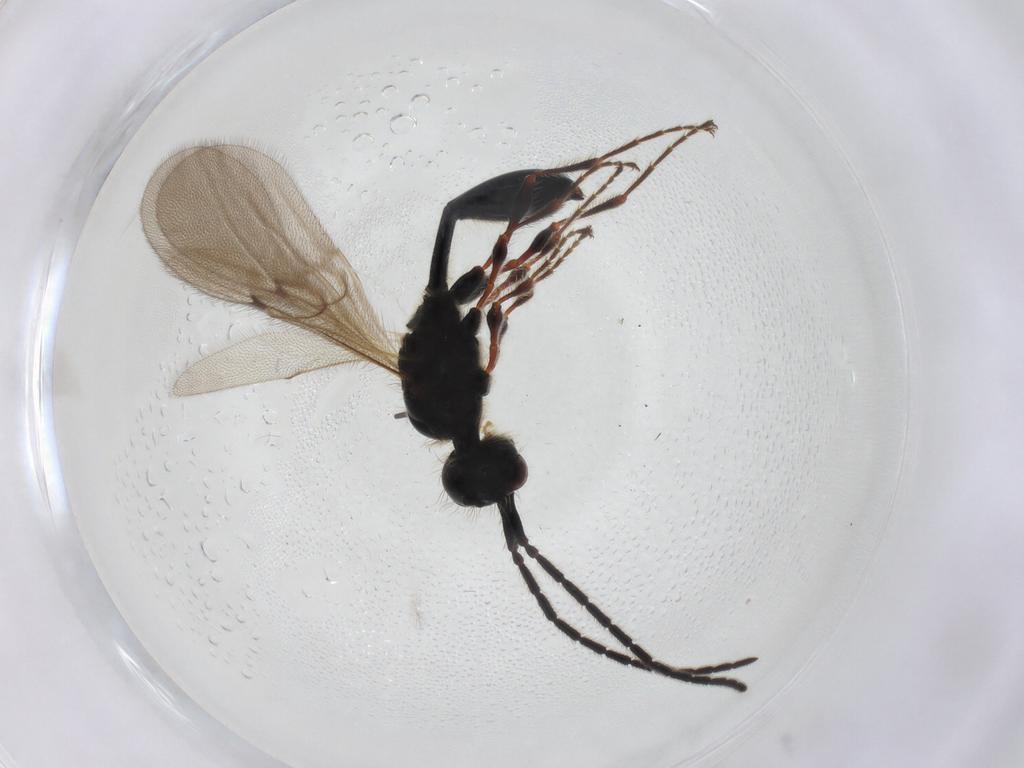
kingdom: Animalia
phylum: Arthropoda
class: Insecta
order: Hymenoptera
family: Diapriidae
